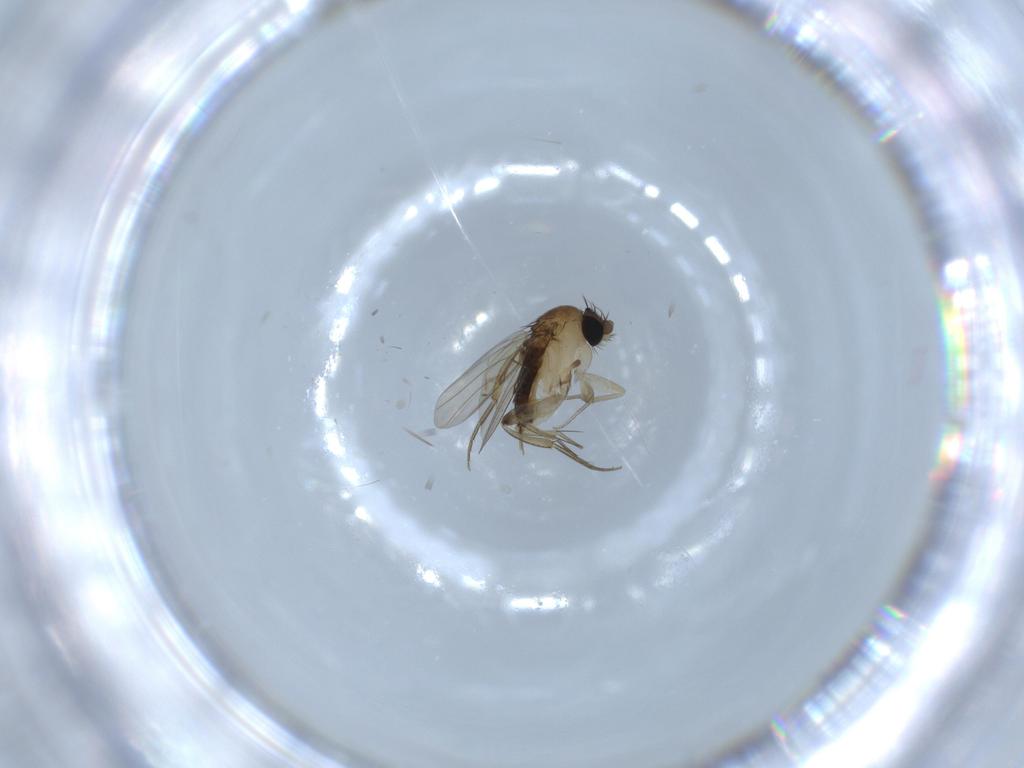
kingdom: Animalia
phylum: Arthropoda
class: Insecta
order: Diptera
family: Phoridae
